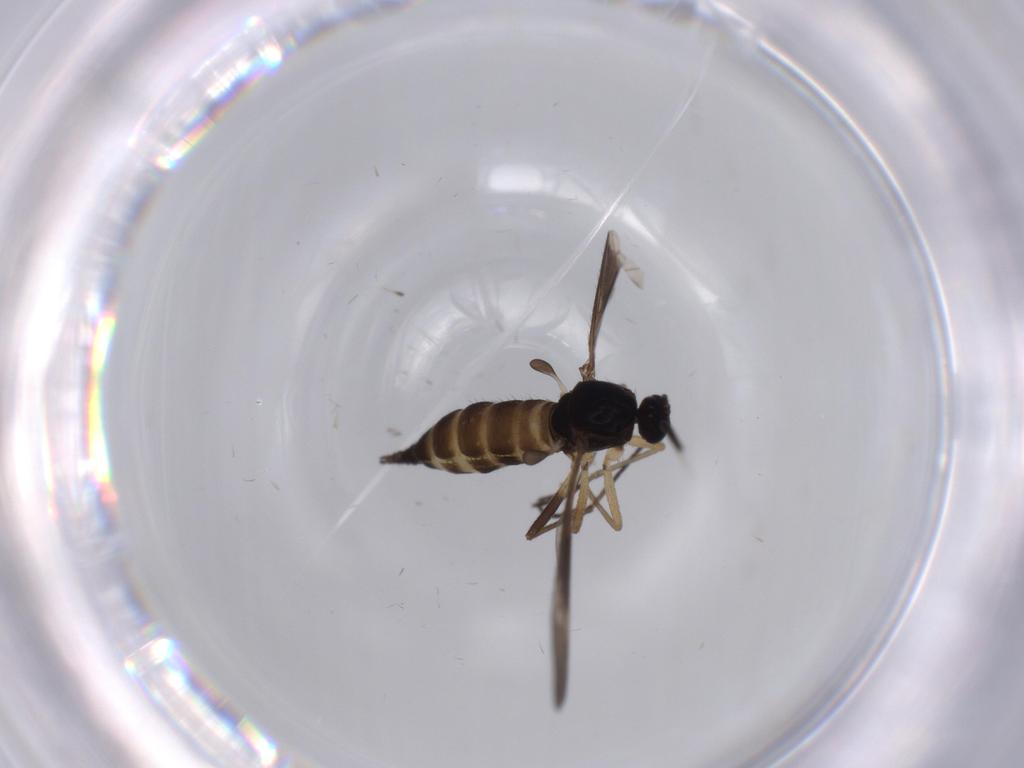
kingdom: Animalia
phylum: Arthropoda
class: Insecta
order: Diptera
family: Sciaridae
